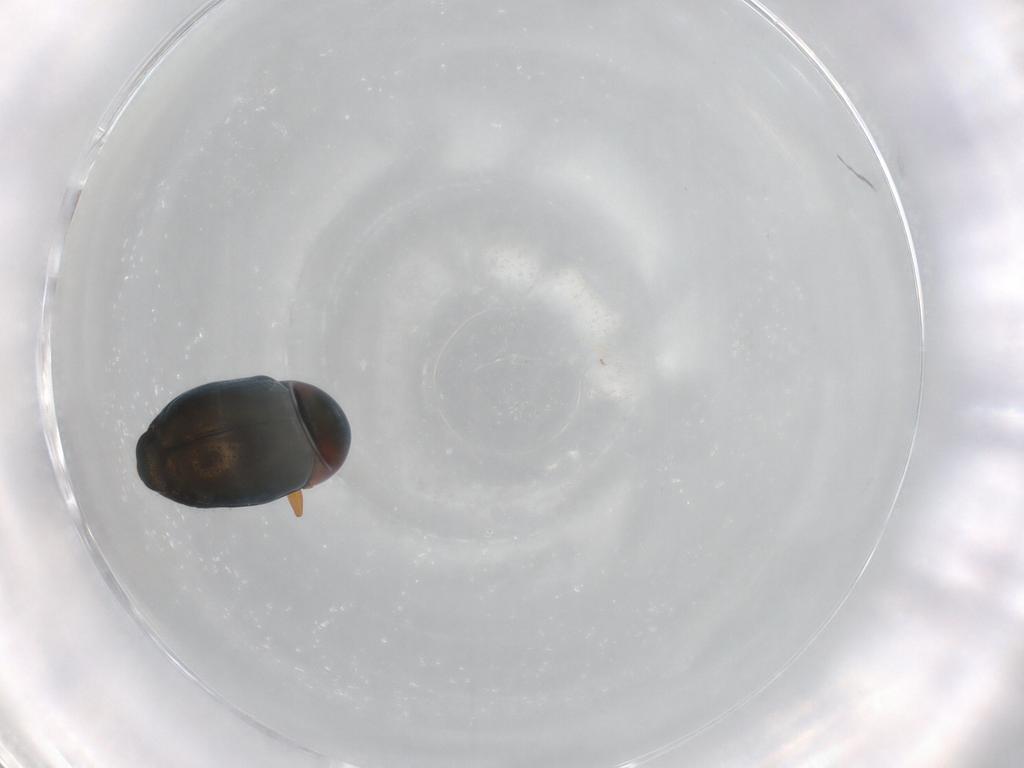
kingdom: Animalia
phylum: Arthropoda
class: Insecta
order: Coleoptera
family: Chrysomelidae
